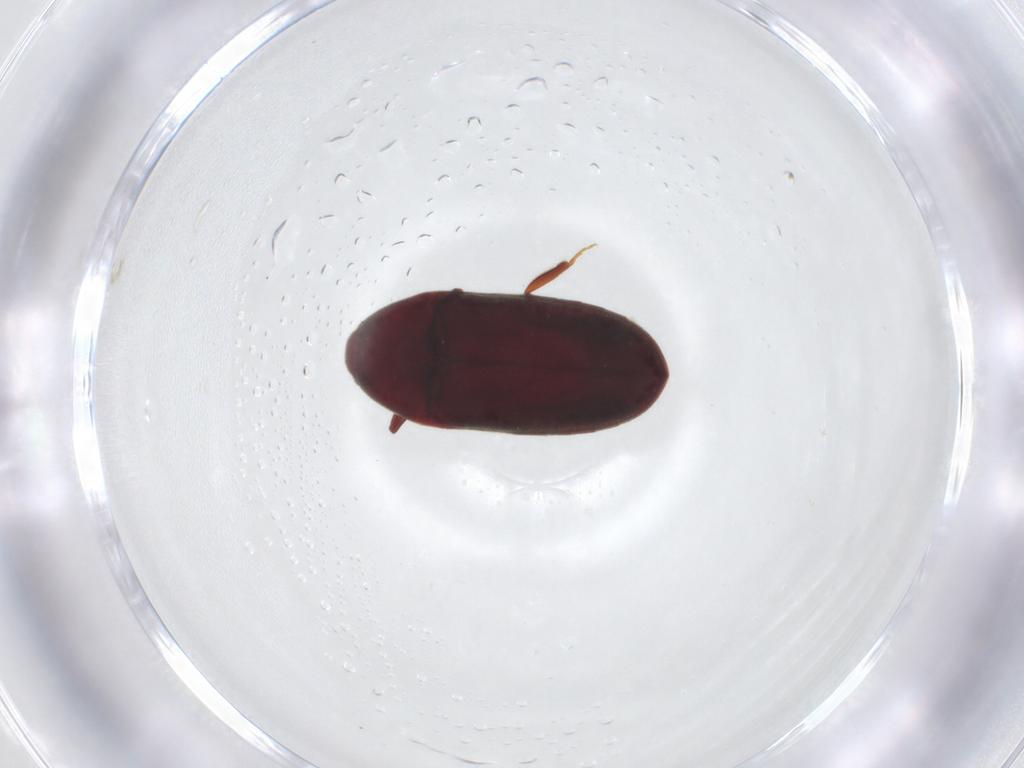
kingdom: Animalia
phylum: Arthropoda
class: Insecta
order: Coleoptera
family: Throscidae
